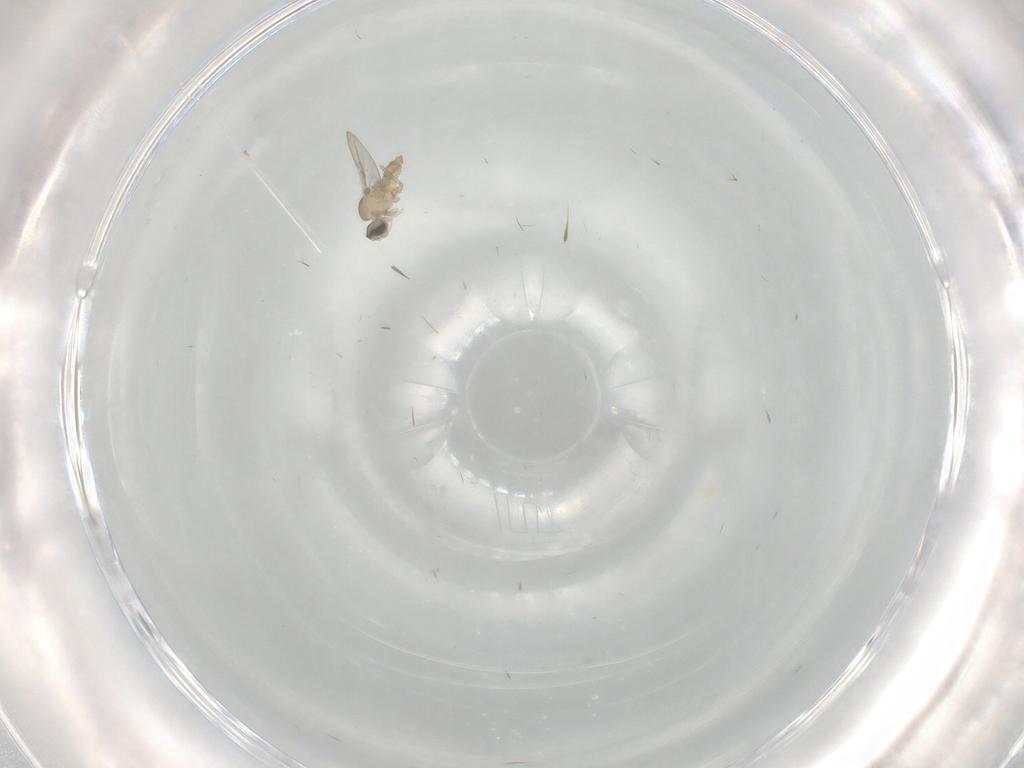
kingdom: Animalia
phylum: Arthropoda
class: Insecta
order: Diptera
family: Cecidomyiidae
